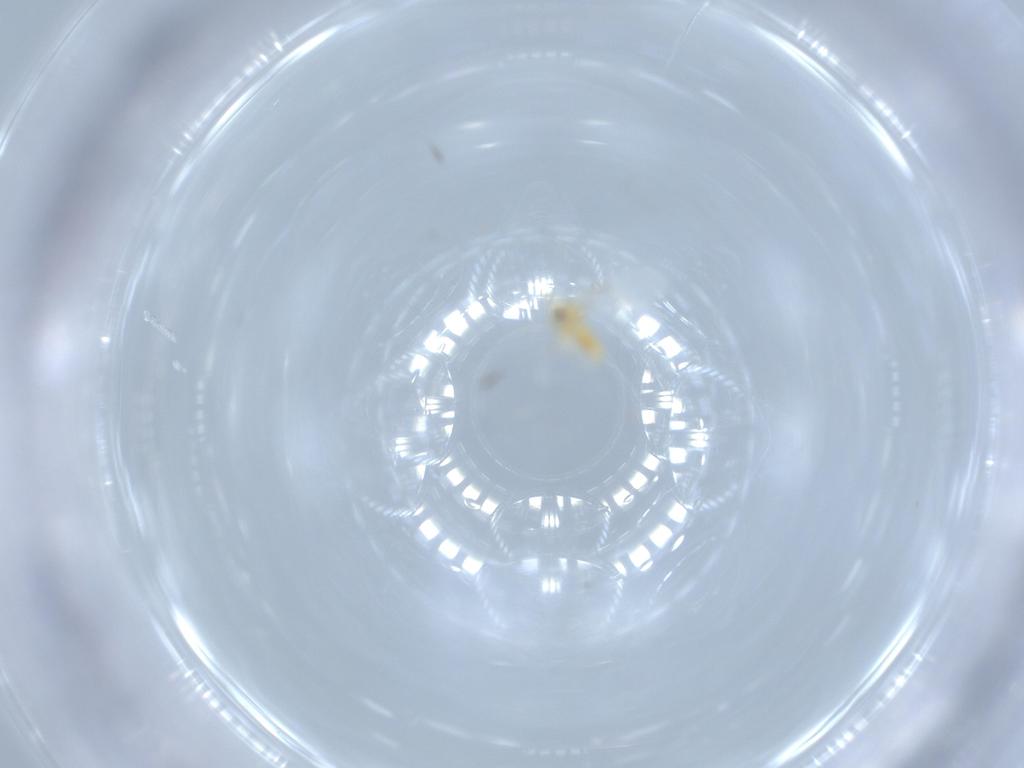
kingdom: Animalia
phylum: Arthropoda
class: Insecta
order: Hemiptera
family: Aleyrodidae
